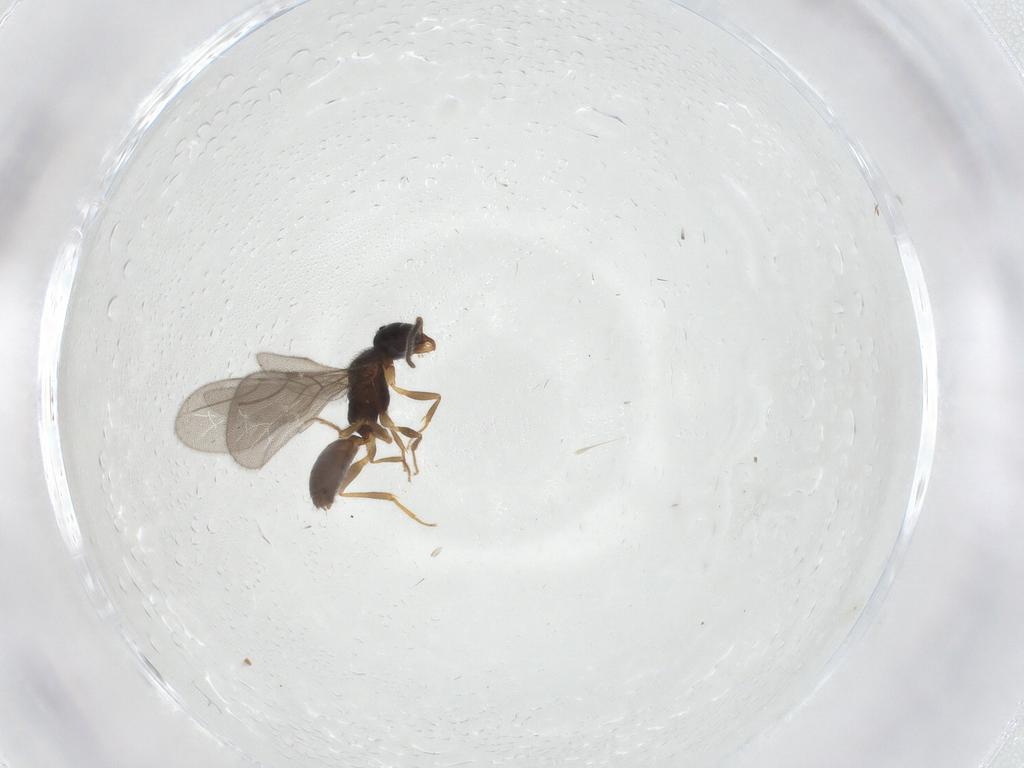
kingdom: Animalia
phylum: Arthropoda
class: Insecta
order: Hymenoptera
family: Bethylidae
